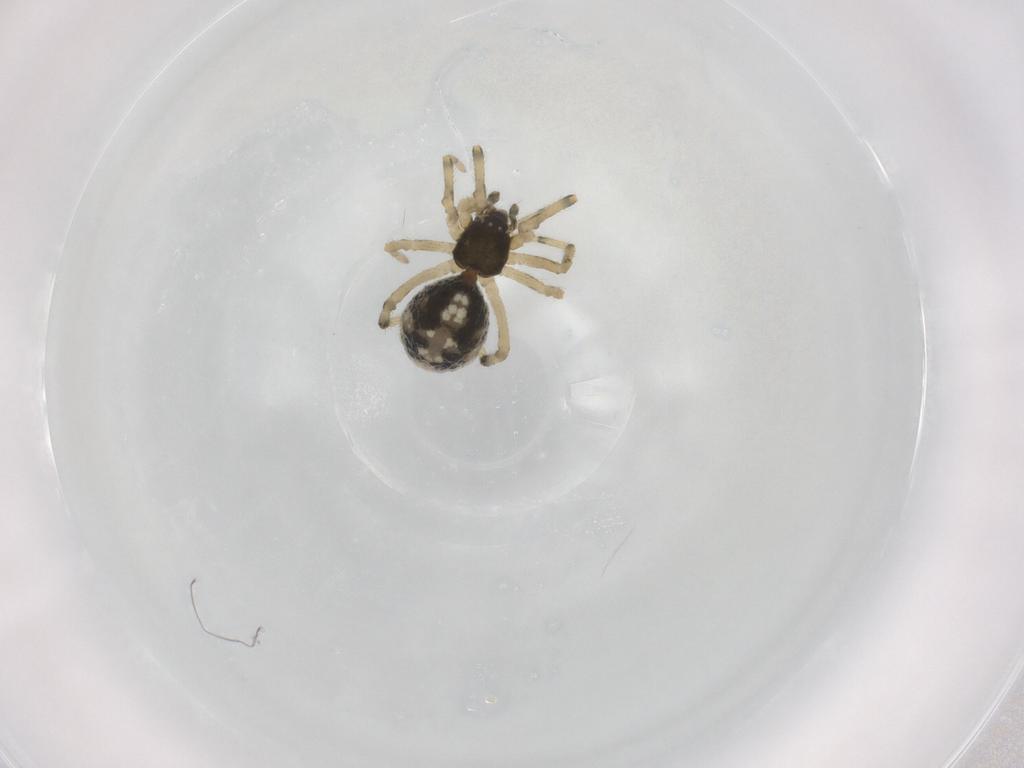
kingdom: Animalia
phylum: Arthropoda
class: Arachnida
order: Araneae
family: Theridiidae
